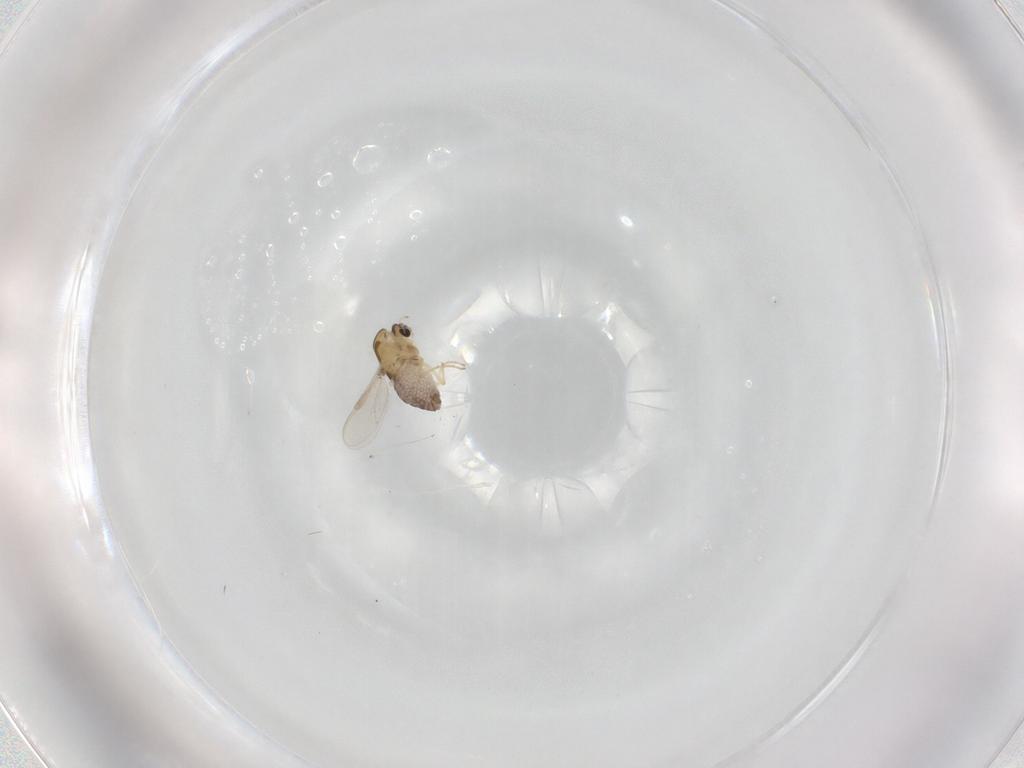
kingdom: Animalia
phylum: Arthropoda
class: Insecta
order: Diptera
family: Chironomidae
